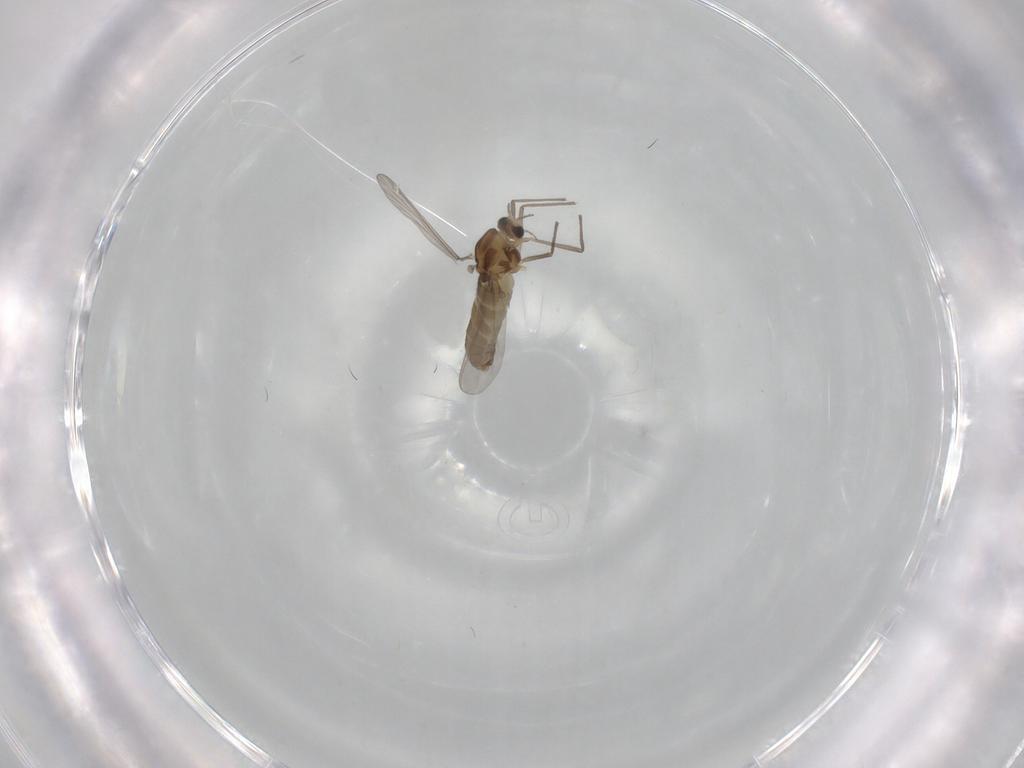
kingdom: Animalia
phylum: Arthropoda
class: Insecta
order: Diptera
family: Chironomidae
